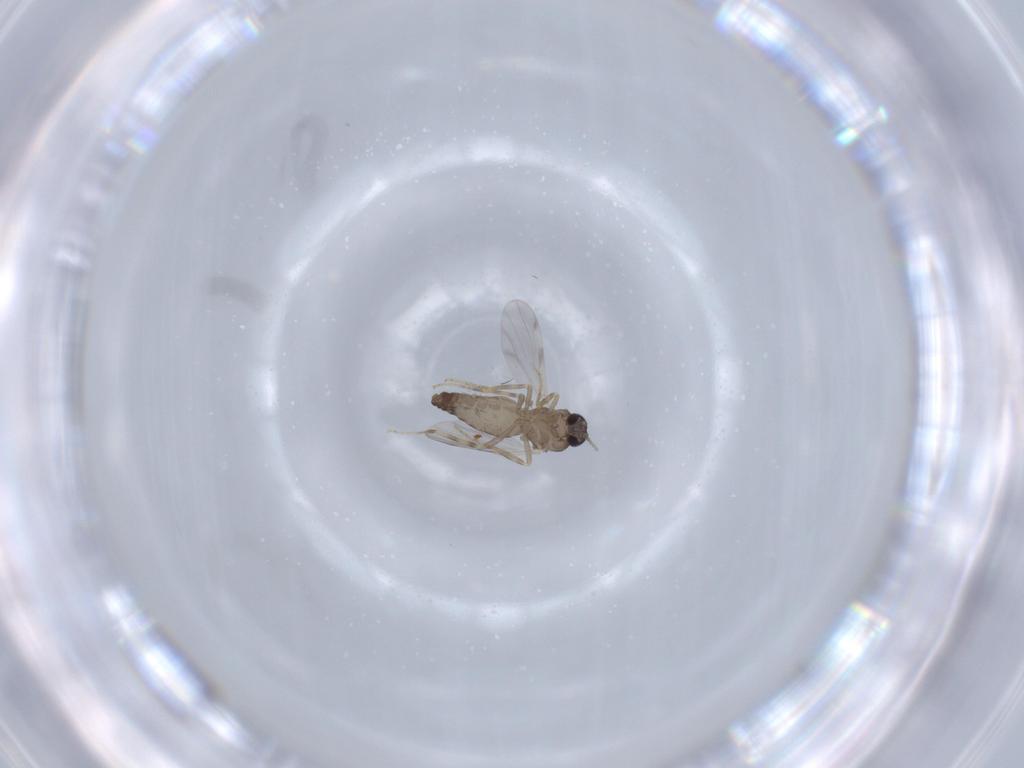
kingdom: Animalia
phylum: Arthropoda
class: Insecta
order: Diptera
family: Ceratopogonidae
